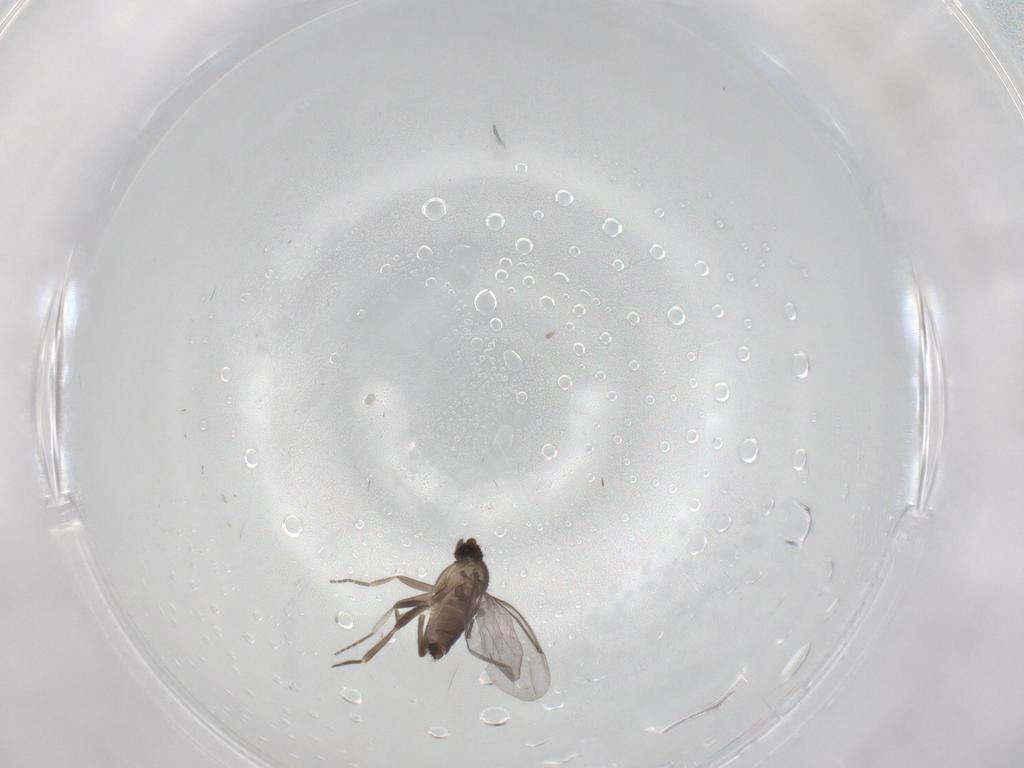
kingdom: Animalia
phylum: Arthropoda
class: Insecta
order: Diptera
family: Phoridae
